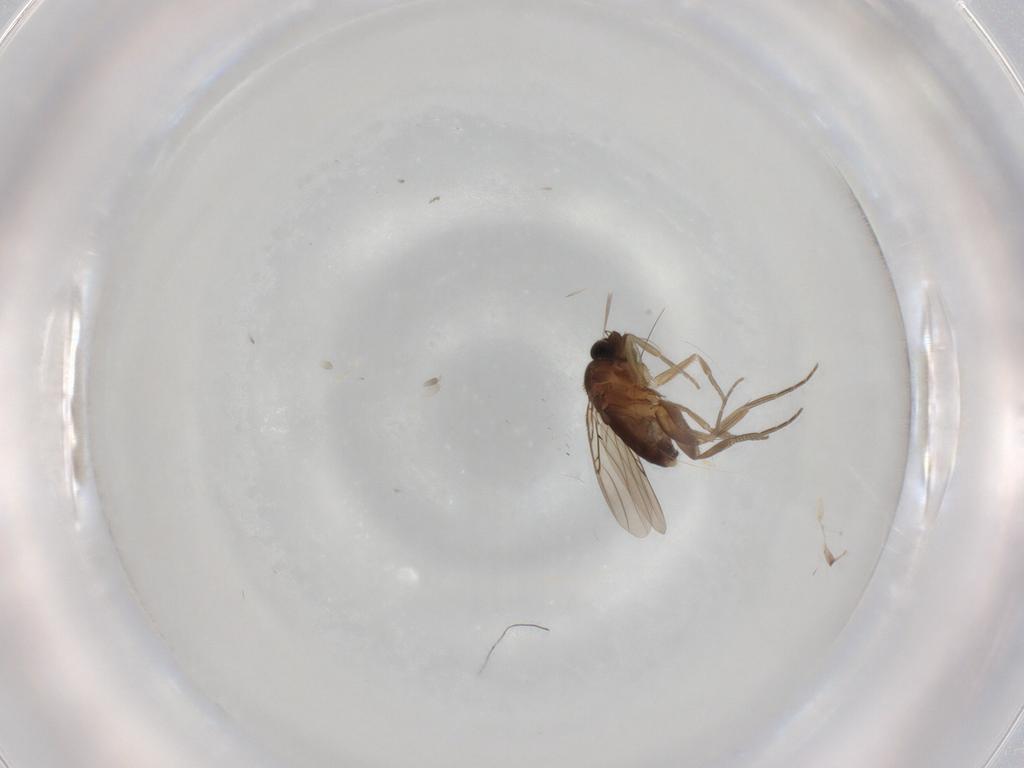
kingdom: Animalia
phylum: Arthropoda
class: Insecta
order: Diptera
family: Phoridae
